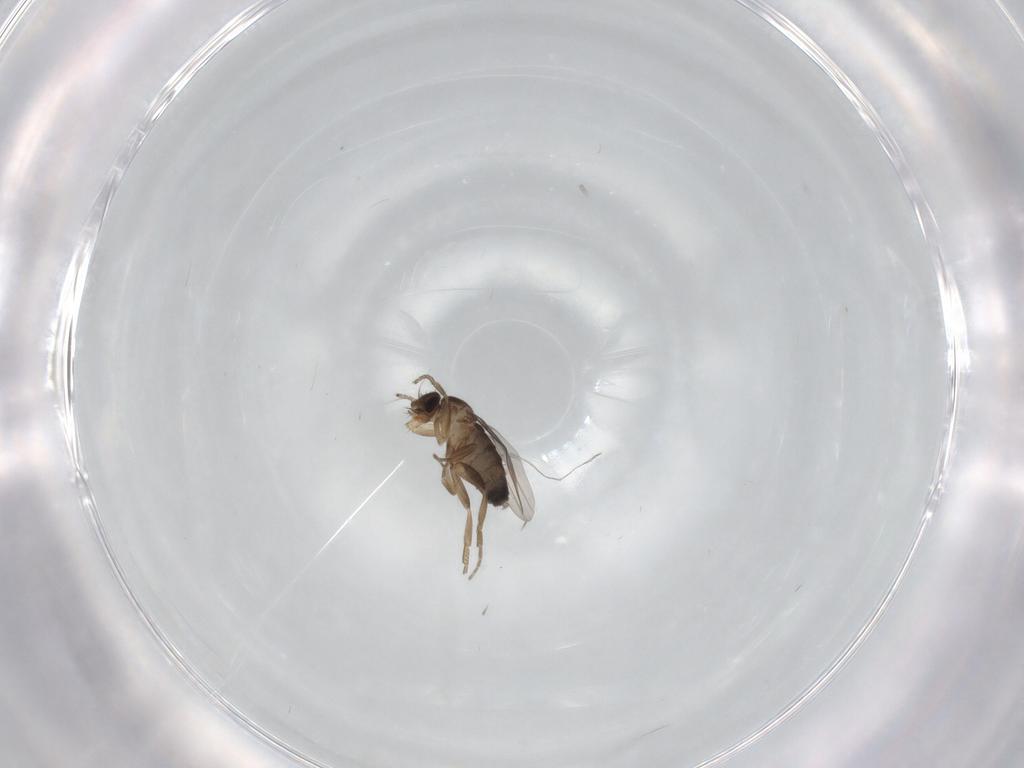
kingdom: Animalia
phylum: Arthropoda
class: Insecta
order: Diptera
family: Phoridae
